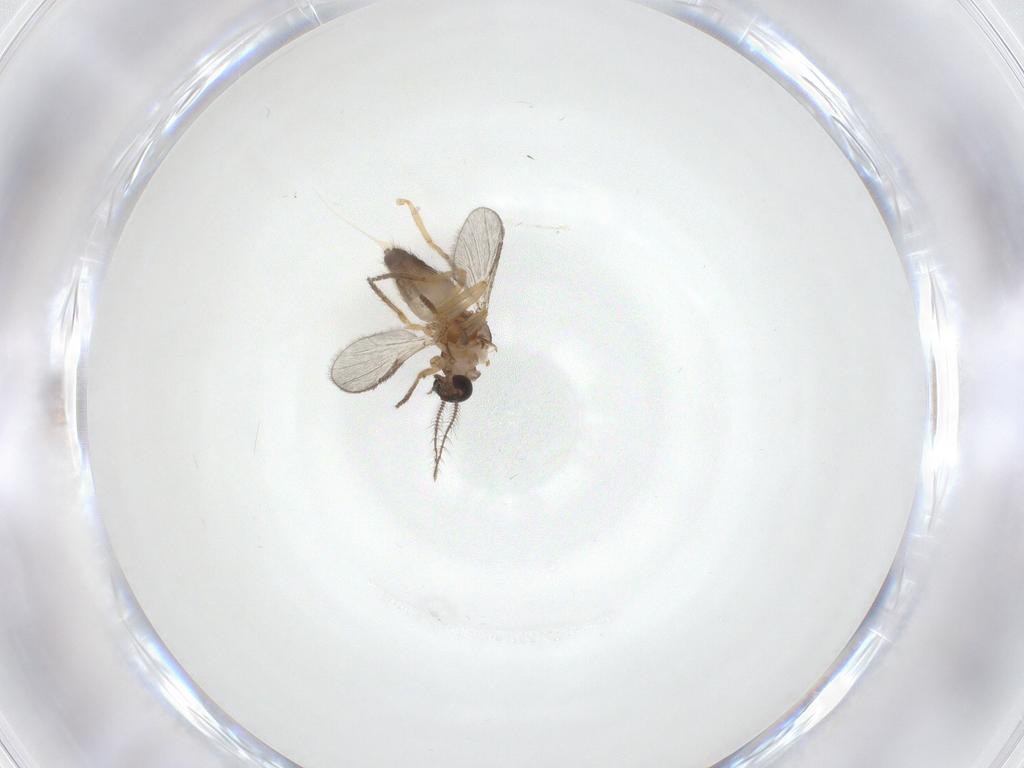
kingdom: Animalia
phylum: Arthropoda
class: Insecta
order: Diptera
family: Ceratopogonidae
